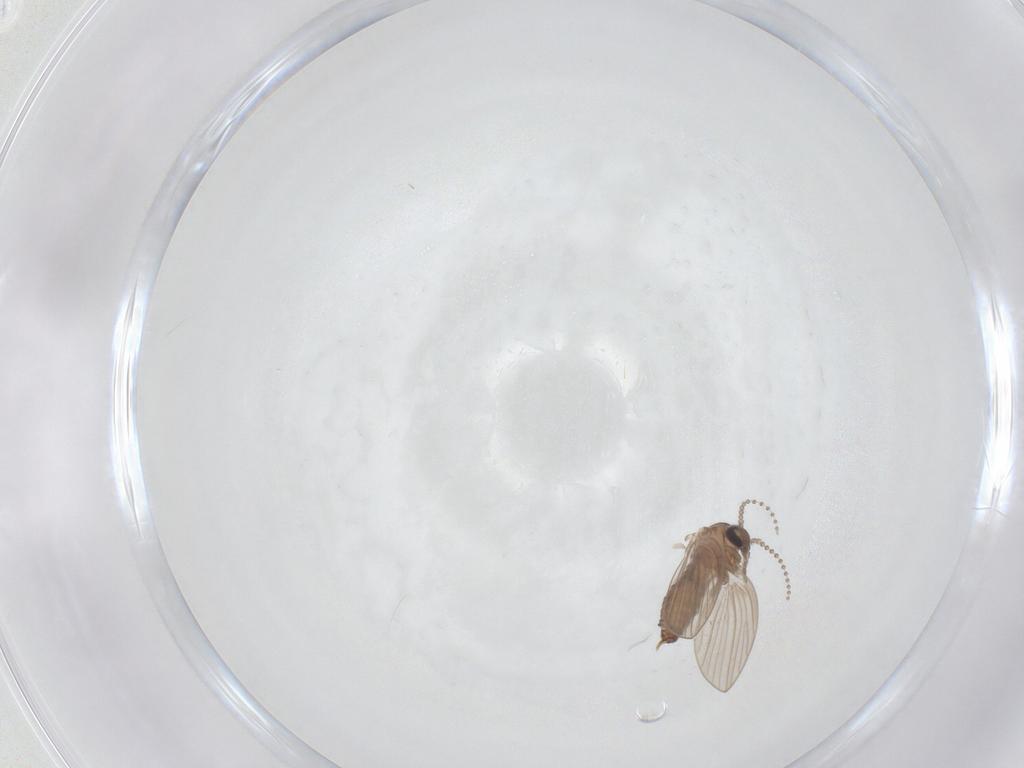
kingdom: Animalia
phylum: Arthropoda
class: Insecta
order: Diptera
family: Psychodidae
